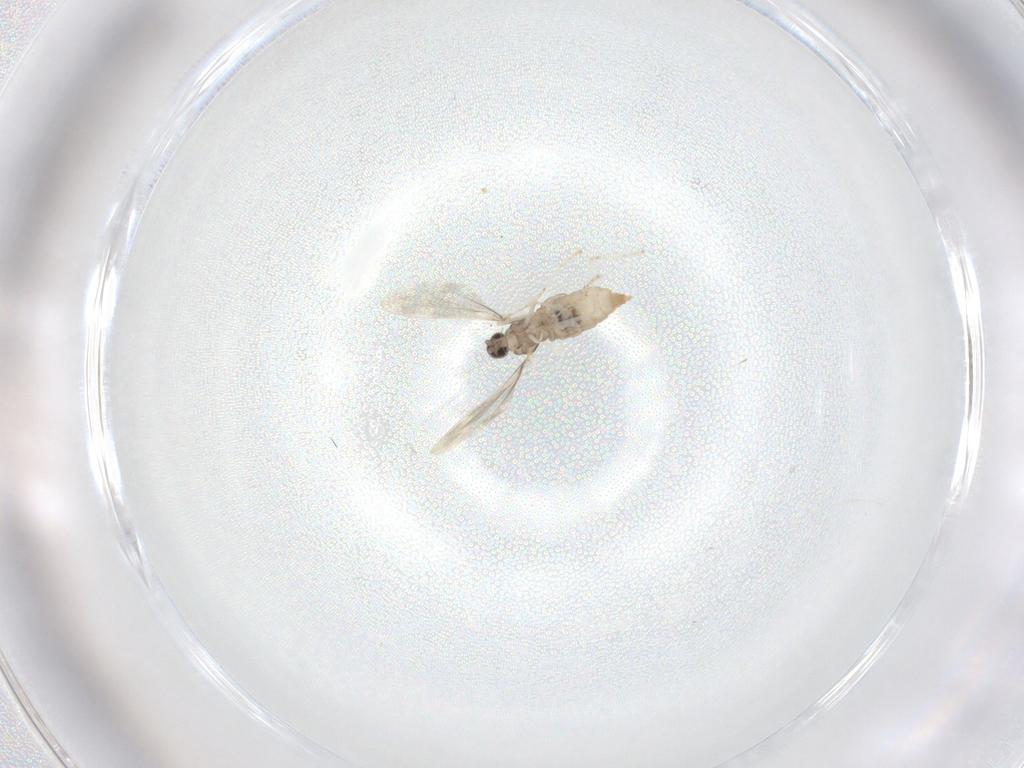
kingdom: Animalia
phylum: Arthropoda
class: Insecta
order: Diptera
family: Cecidomyiidae
